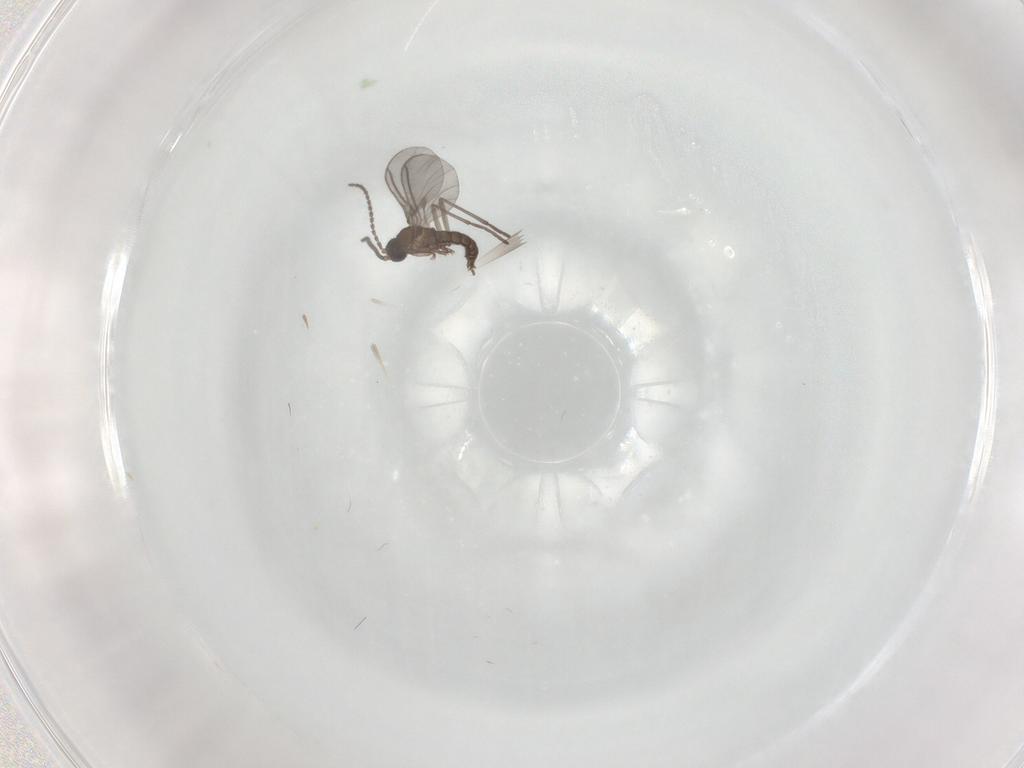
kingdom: Animalia
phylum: Arthropoda
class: Insecta
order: Diptera
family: Sciaridae
